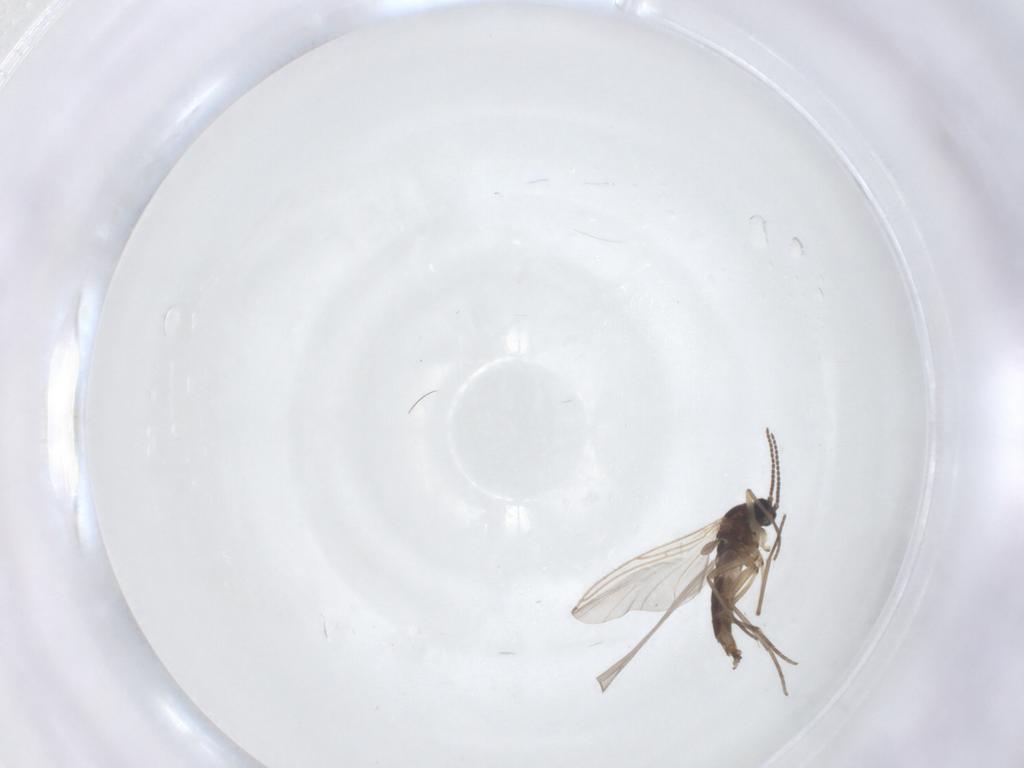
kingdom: Animalia
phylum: Arthropoda
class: Insecta
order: Diptera
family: Sciaridae
